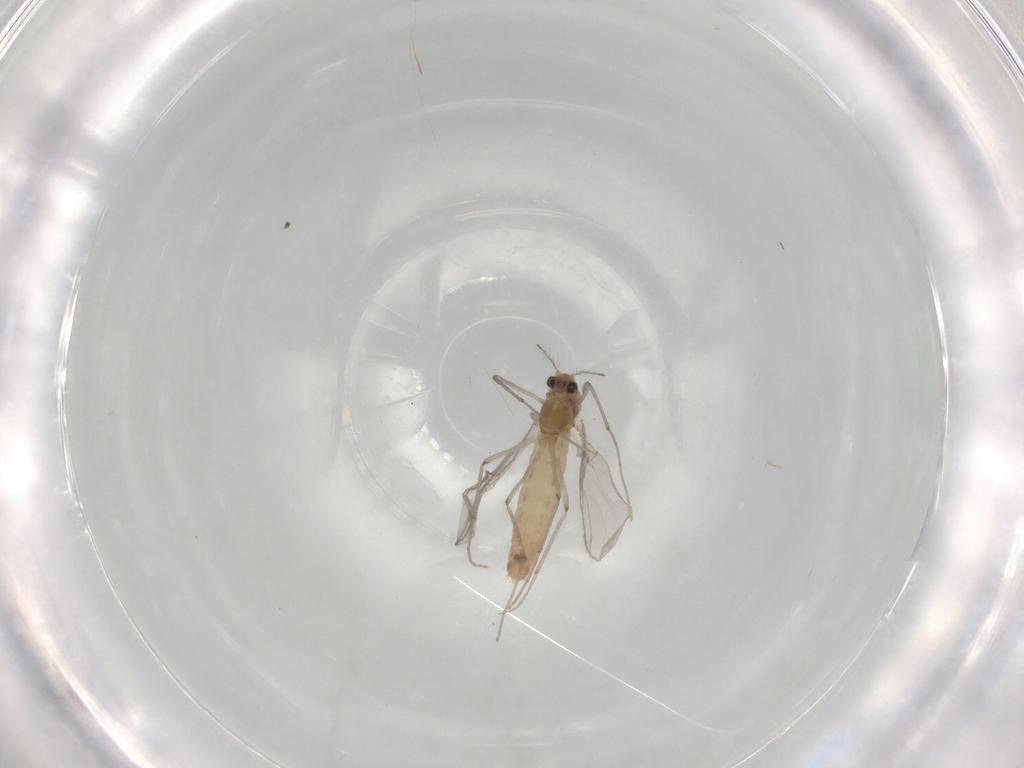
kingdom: Animalia
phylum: Arthropoda
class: Insecta
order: Diptera
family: Chironomidae
